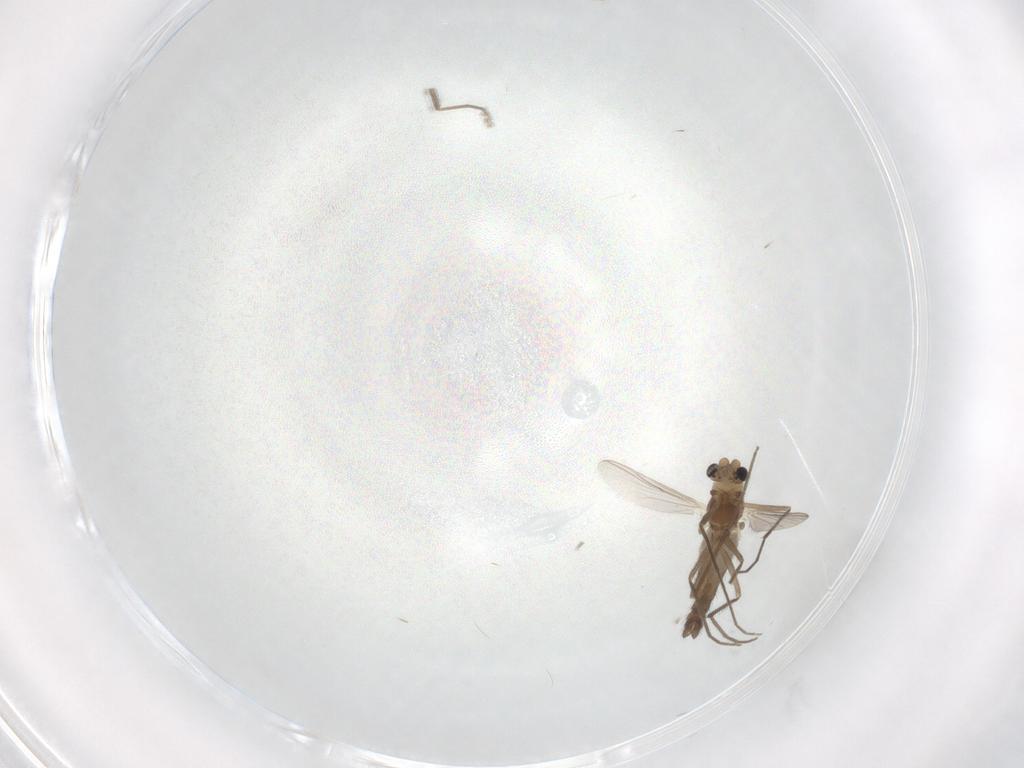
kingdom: Animalia
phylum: Arthropoda
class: Insecta
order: Diptera
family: Chironomidae
